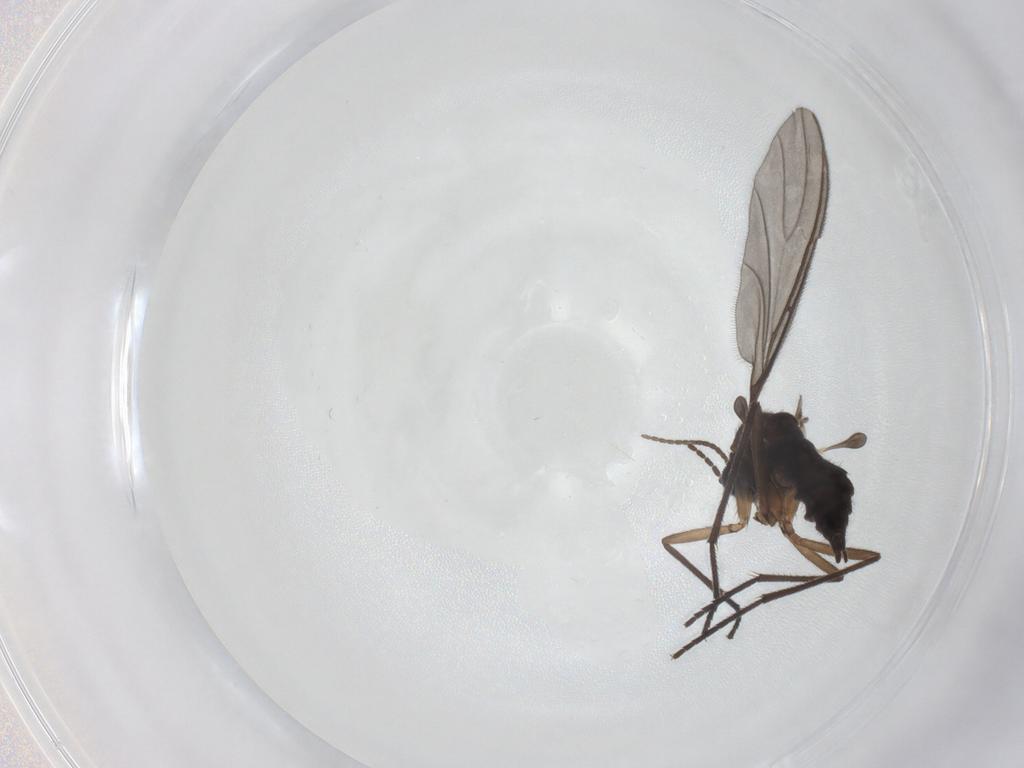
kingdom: Animalia
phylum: Arthropoda
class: Insecta
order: Diptera
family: Sciaridae
